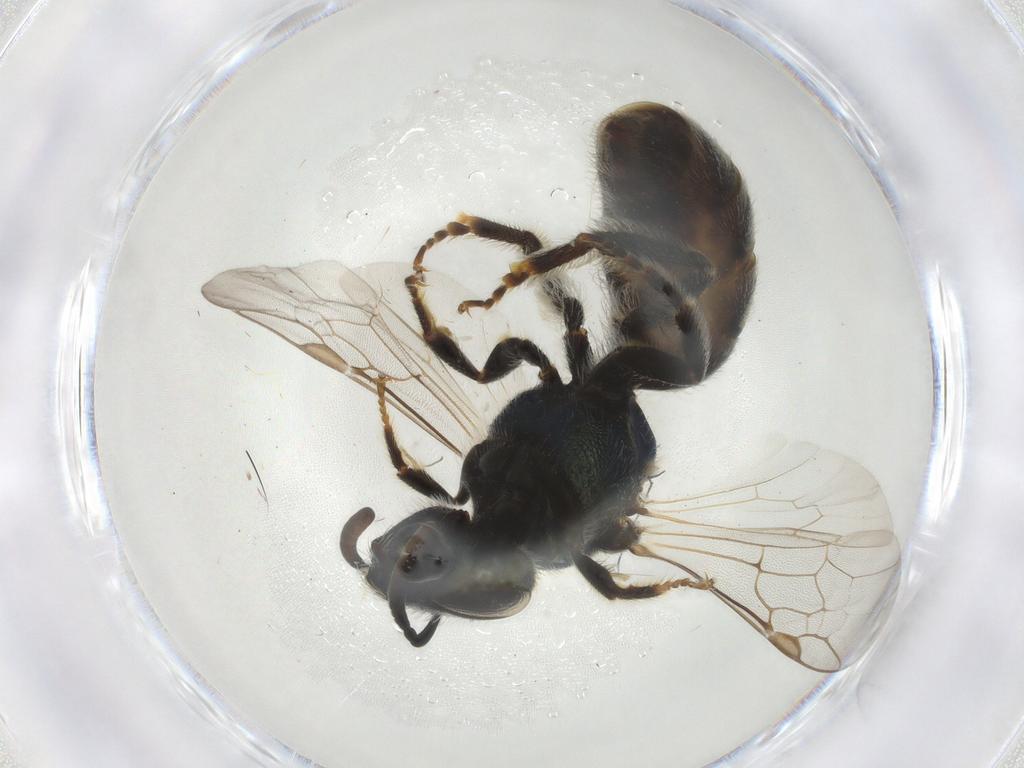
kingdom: Animalia
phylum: Arthropoda
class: Insecta
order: Hymenoptera
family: Halictidae
